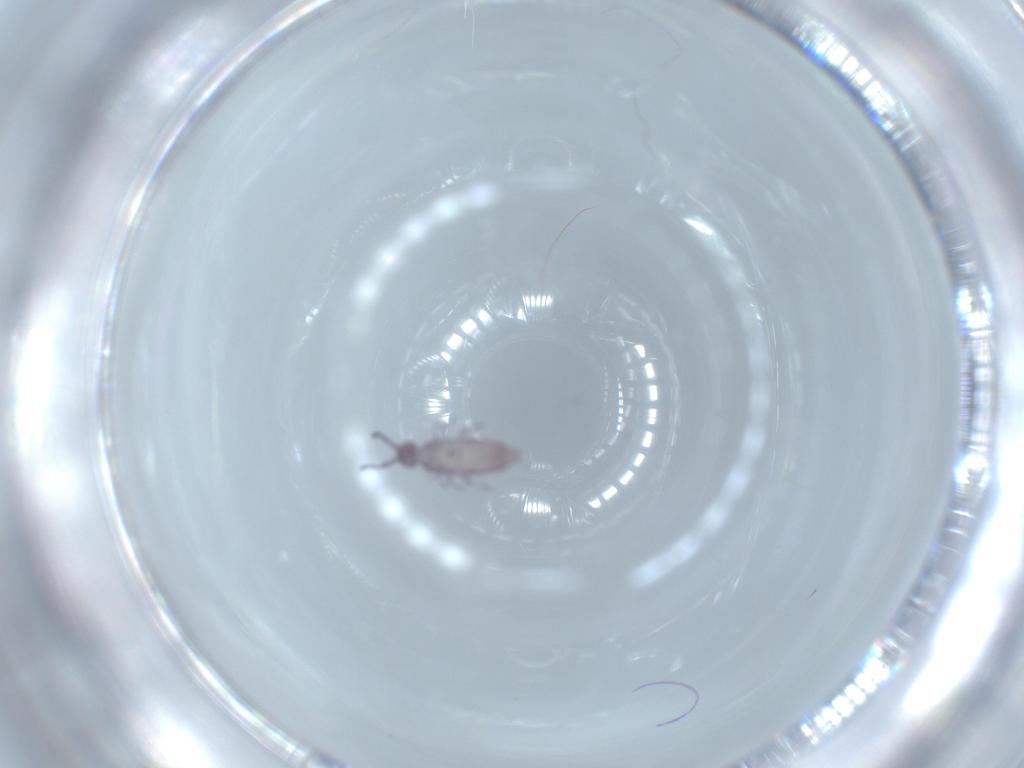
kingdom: Animalia
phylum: Arthropoda
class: Collembola
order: Entomobryomorpha
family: Entomobryidae
